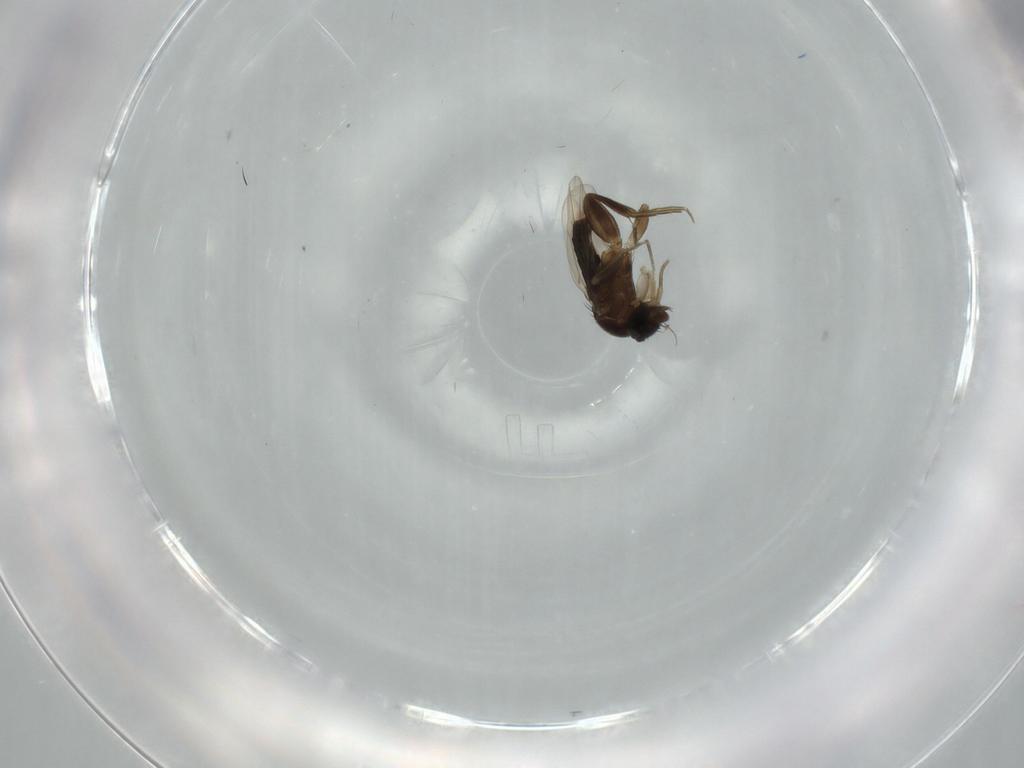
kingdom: Animalia
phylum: Arthropoda
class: Insecta
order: Diptera
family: Phoridae
